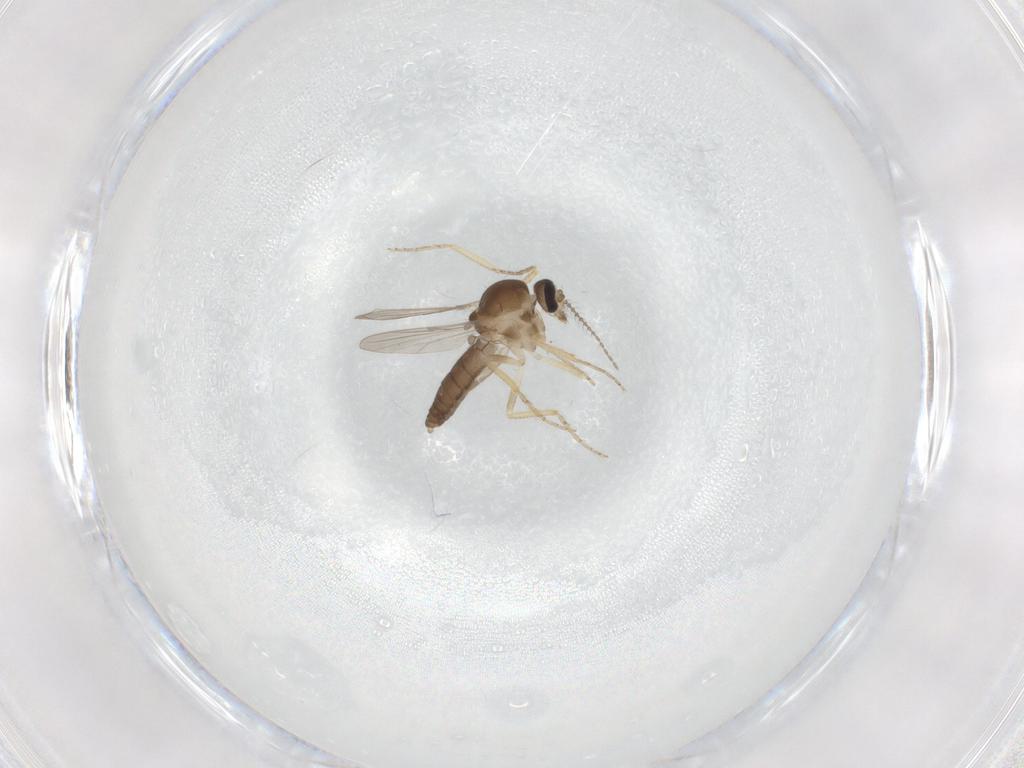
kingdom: Animalia
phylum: Arthropoda
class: Insecta
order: Diptera
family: Ceratopogonidae
